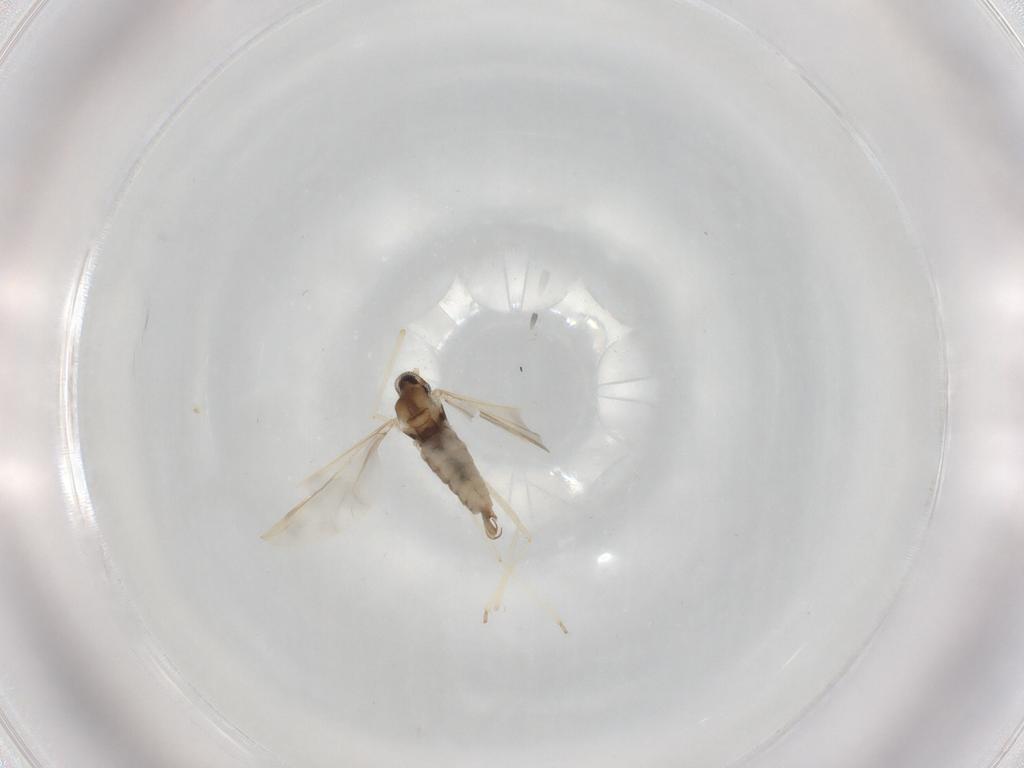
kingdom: Animalia
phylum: Arthropoda
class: Insecta
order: Diptera
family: Cecidomyiidae
